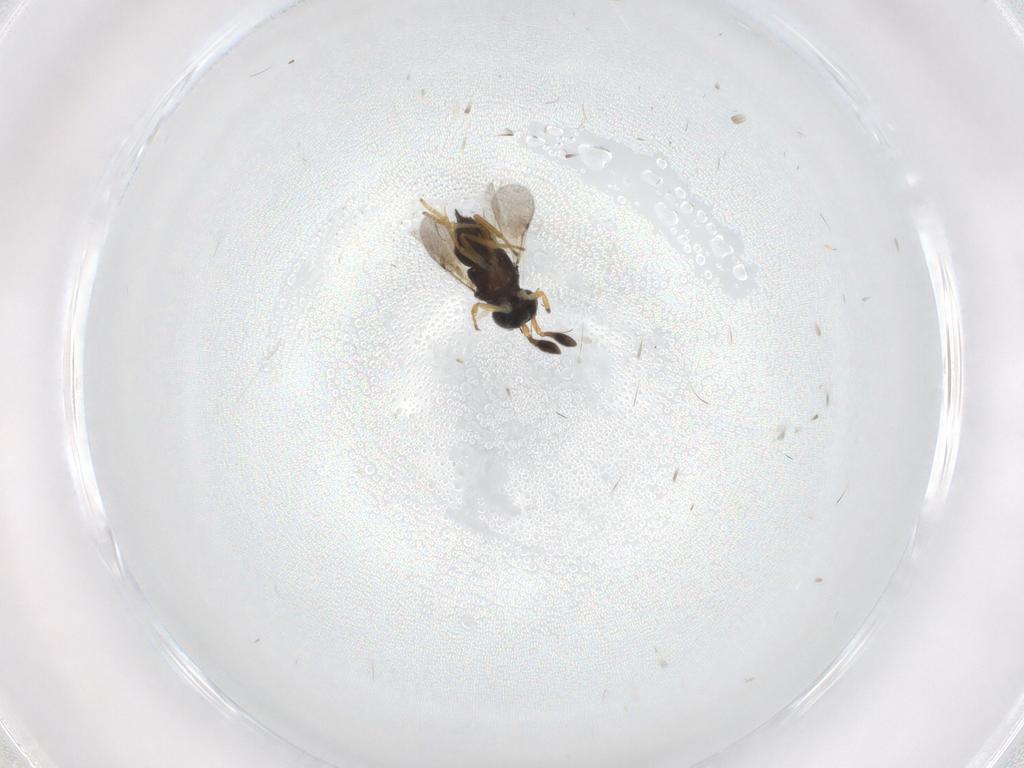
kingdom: Animalia
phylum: Arthropoda
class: Insecta
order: Hymenoptera
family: Encyrtidae
